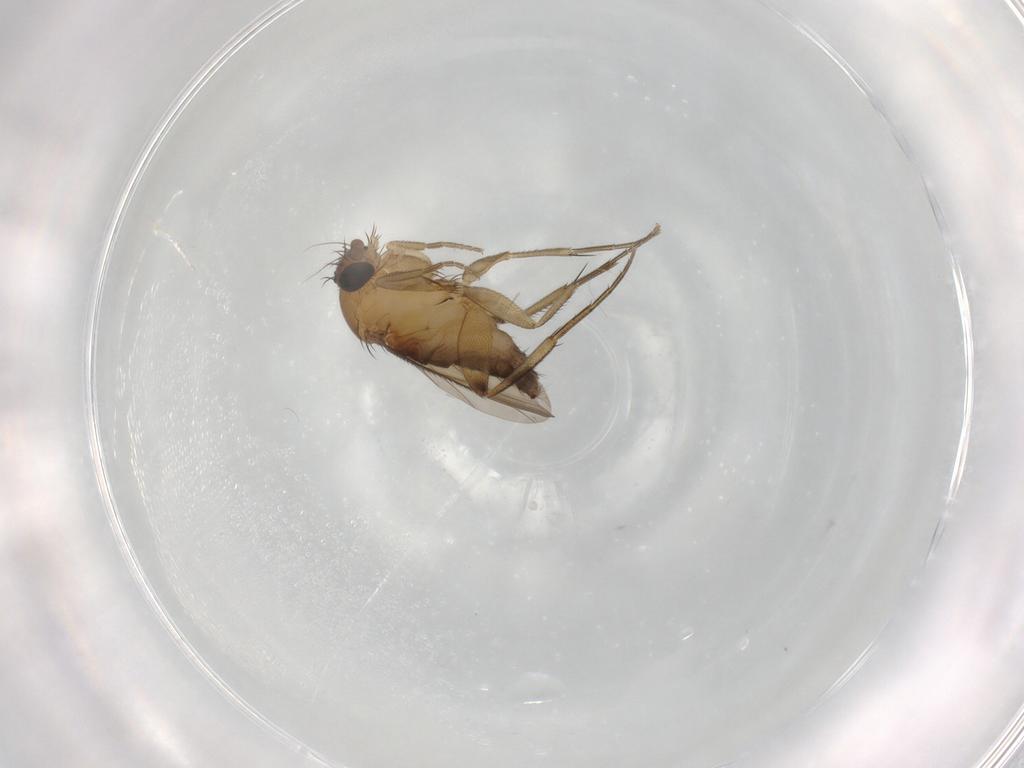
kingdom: Animalia
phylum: Arthropoda
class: Insecta
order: Diptera
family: Phoridae
